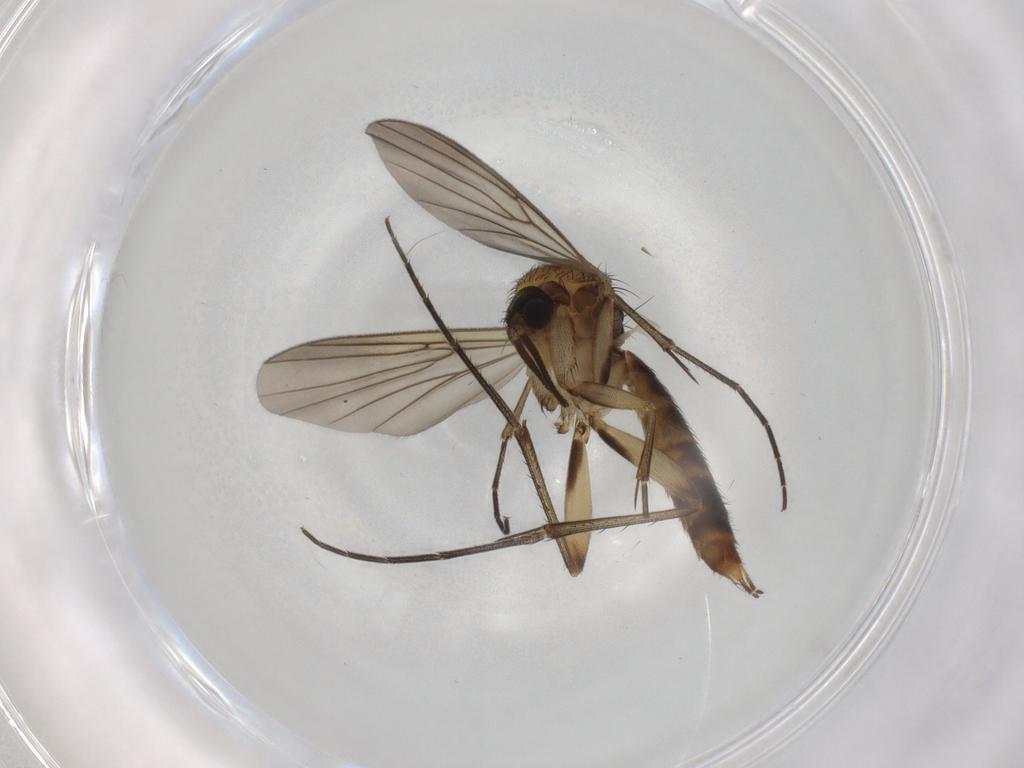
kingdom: Animalia
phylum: Arthropoda
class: Insecta
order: Diptera
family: Mycetophilidae
